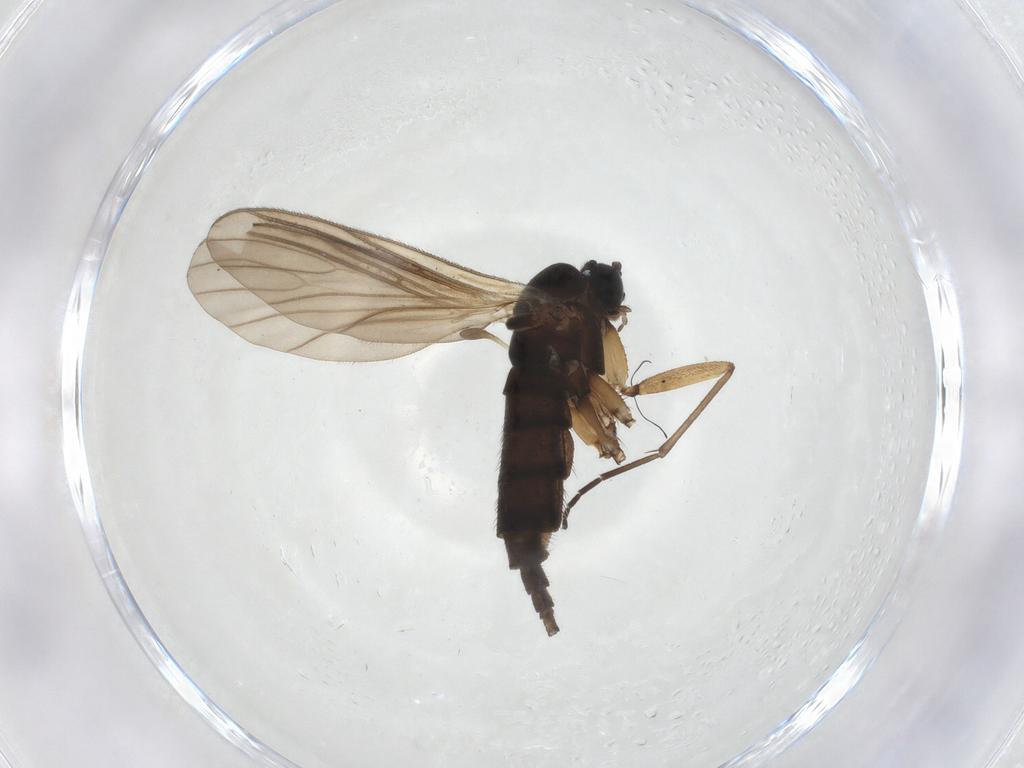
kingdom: Animalia
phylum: Arthropoda
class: Insecta
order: Diptera
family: Sciaridae
